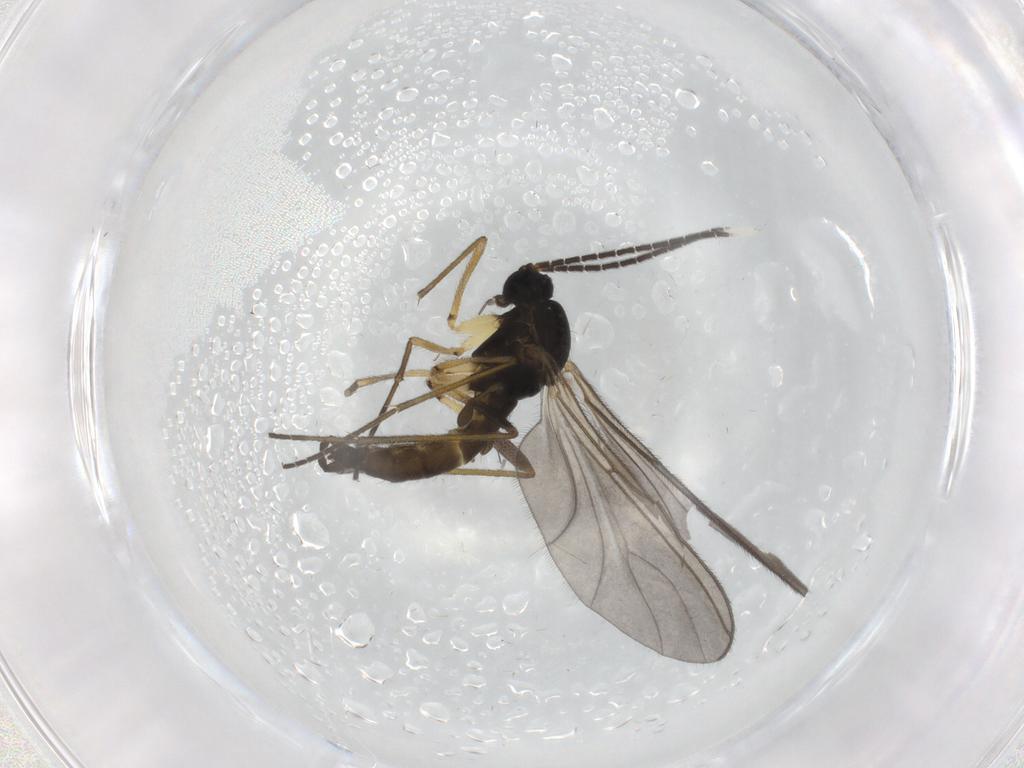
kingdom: Animalia
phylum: Arthropoda
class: Insecta
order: Diptera
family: Sciaridae
